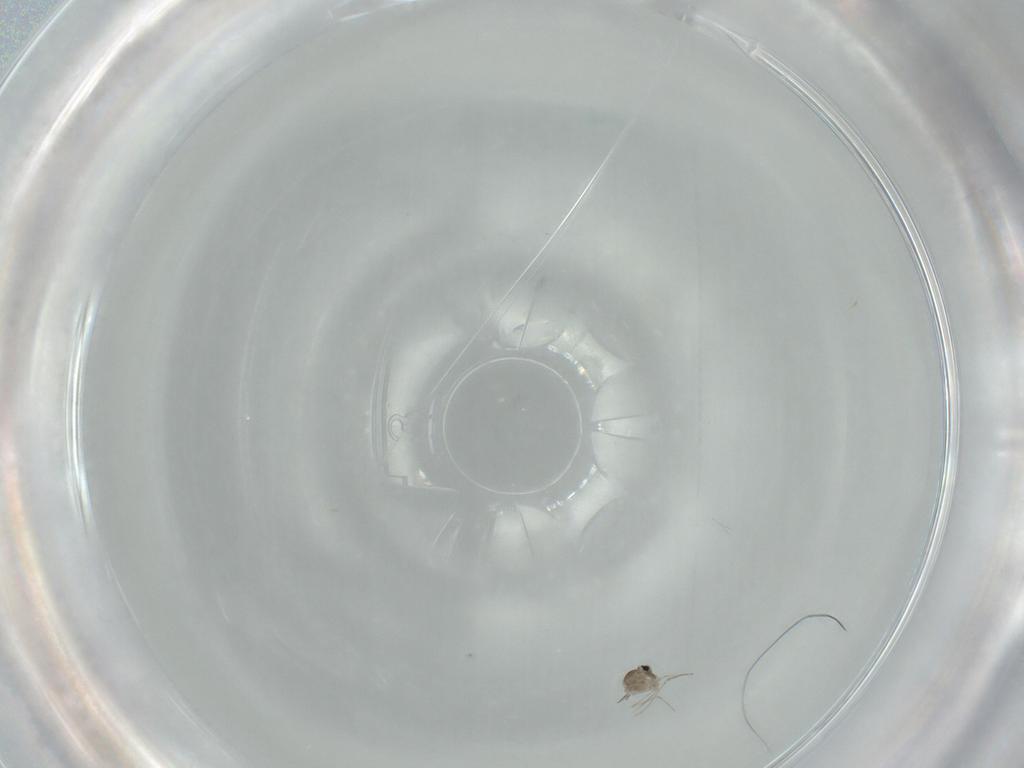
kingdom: Animalia
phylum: Arthropoda
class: Insecta
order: Diptera
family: Cecidomyiidae
